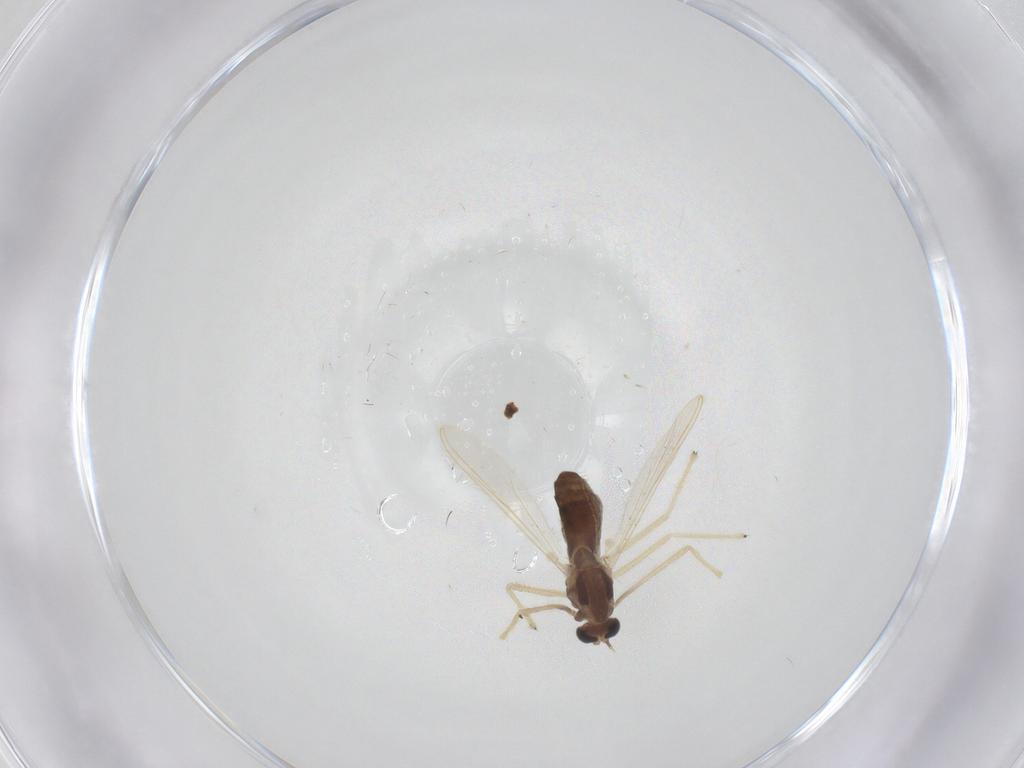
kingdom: Animalia
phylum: Arthropoda
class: Insecta
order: Diptera
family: Chironomidae
